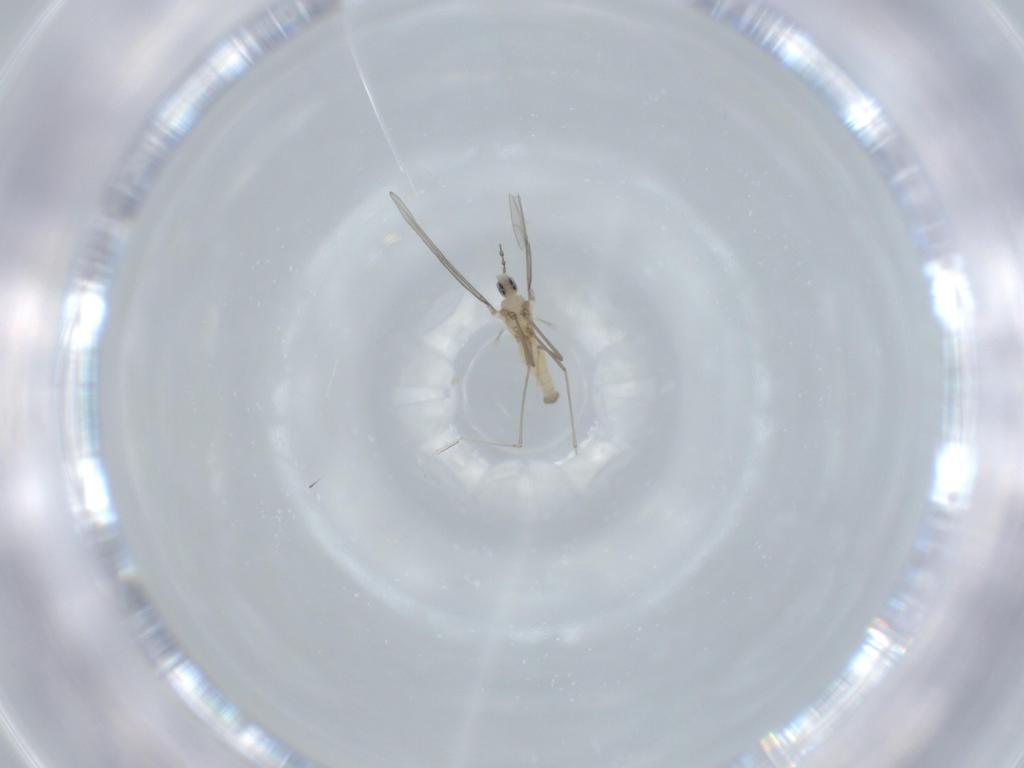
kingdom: Animalia
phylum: Arthropoda
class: Insecta
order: Diptera
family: Cecidomyiidae
